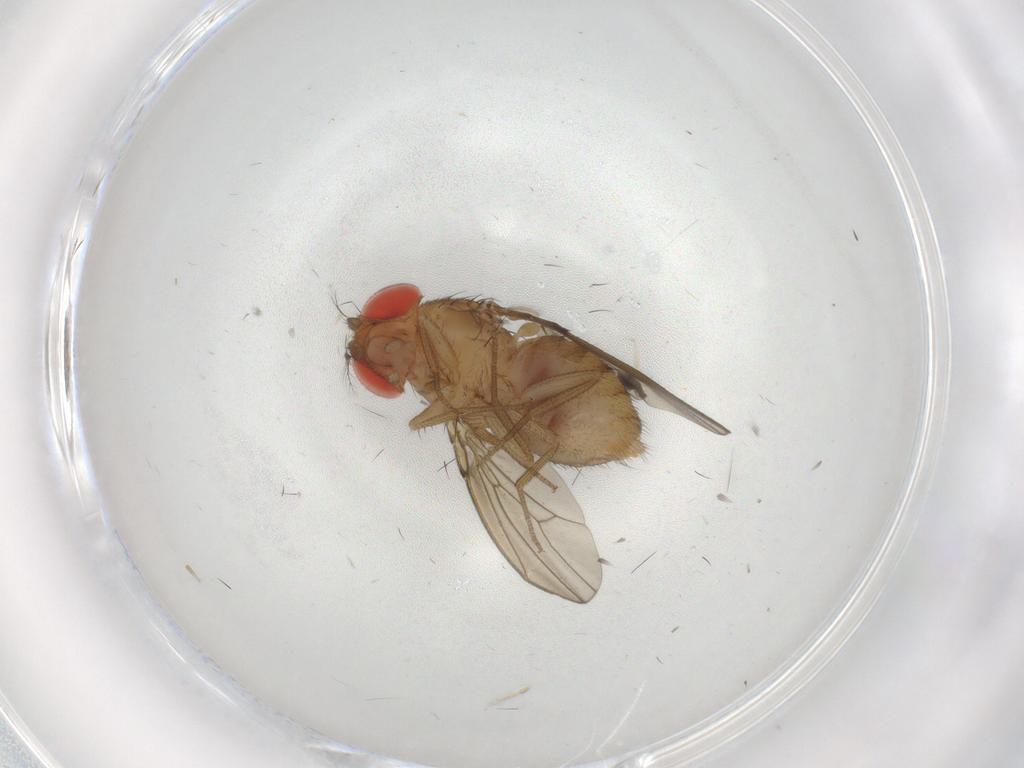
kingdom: Animalia
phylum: Arthropoda
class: Insecta
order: Diptera
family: Drosophilidae
